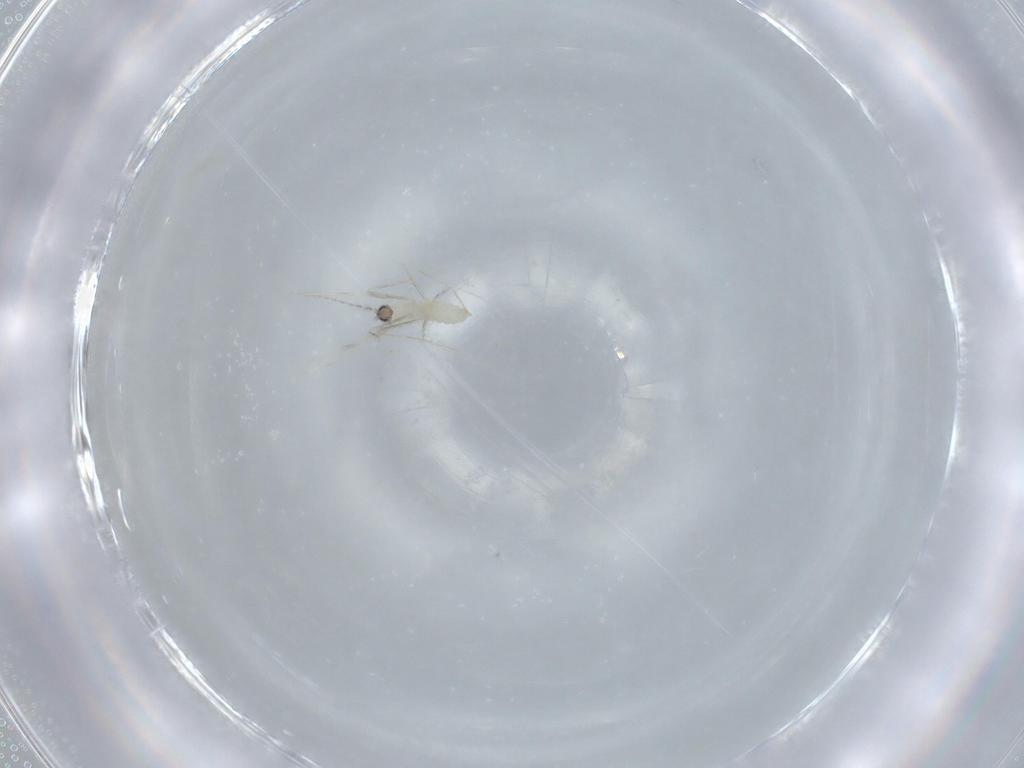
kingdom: Animalia
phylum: Arthropoda
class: Insecta
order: Diptera
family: Cecidomyiidae
